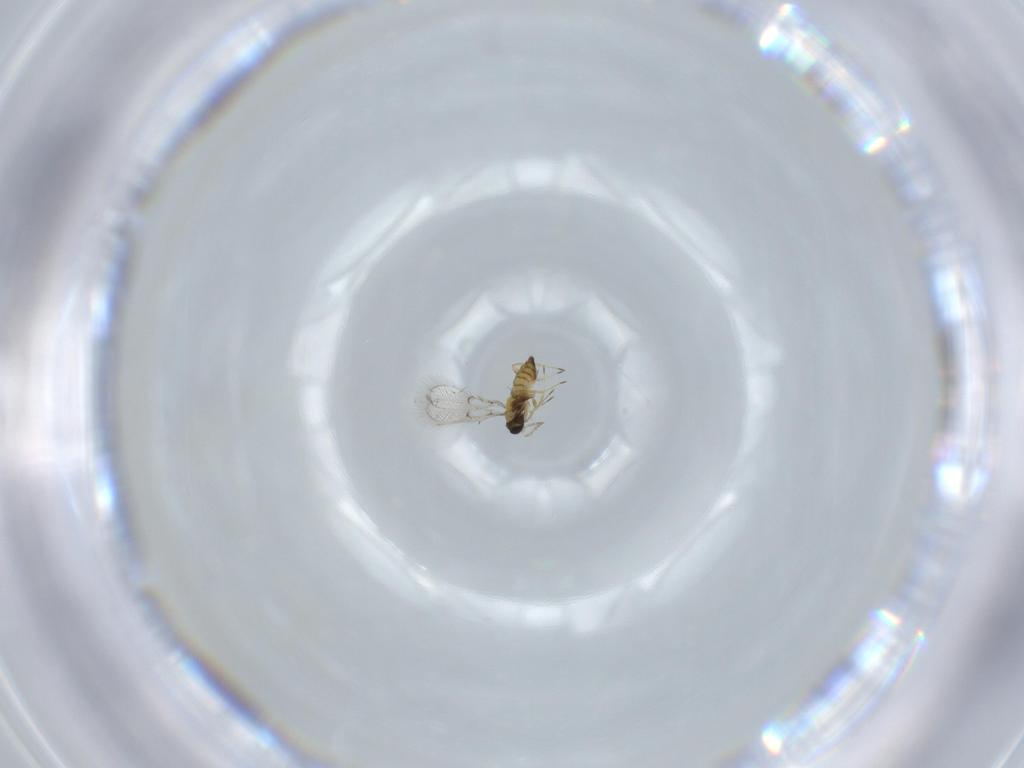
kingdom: Animalia
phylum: Arthropoda
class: Insecta
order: Hymenoptera
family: Trichogrammatidae
